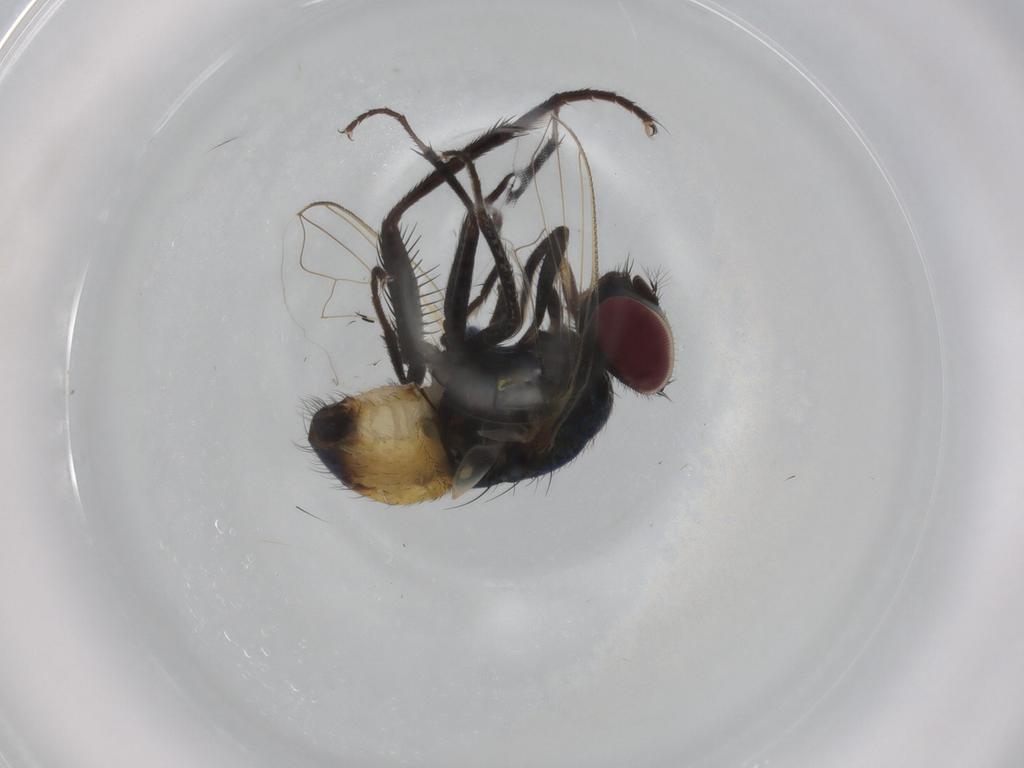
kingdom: Animalia
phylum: Arthropoda
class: Insecta
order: Diptera
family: Muscidae
